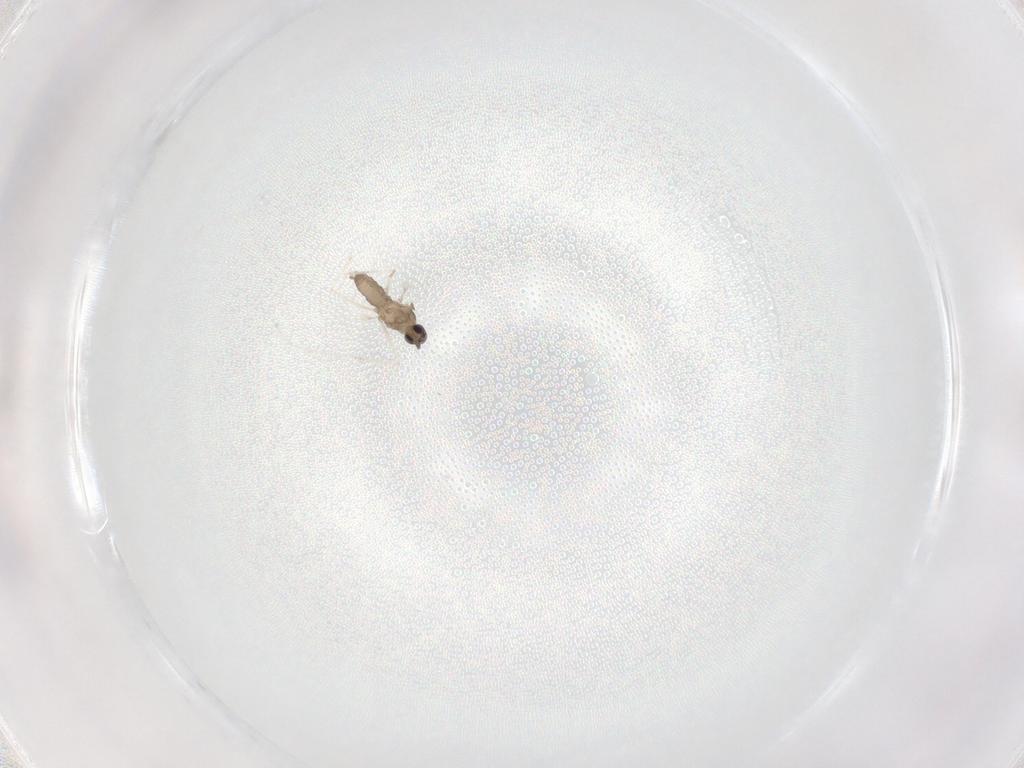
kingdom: Animalia
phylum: Arthropoda
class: Insecta
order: Diptera
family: Cecidomyiidae
